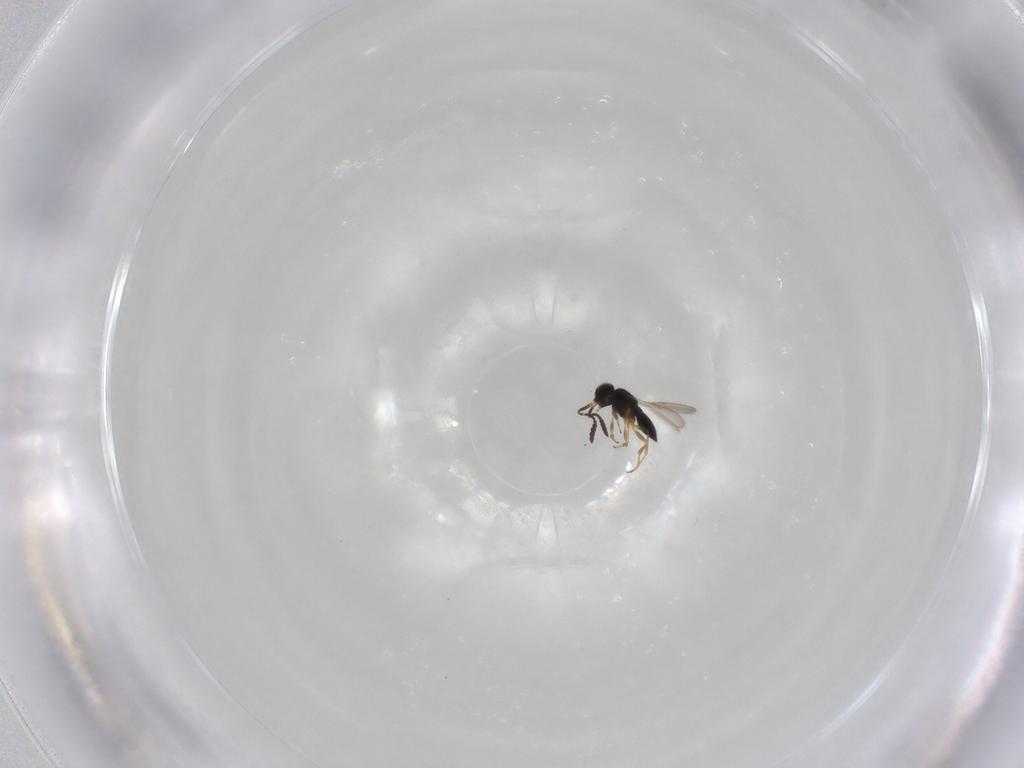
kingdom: Animalia
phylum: Arthropoda
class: Insecta
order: Hymenoptera
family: Scelionidae
